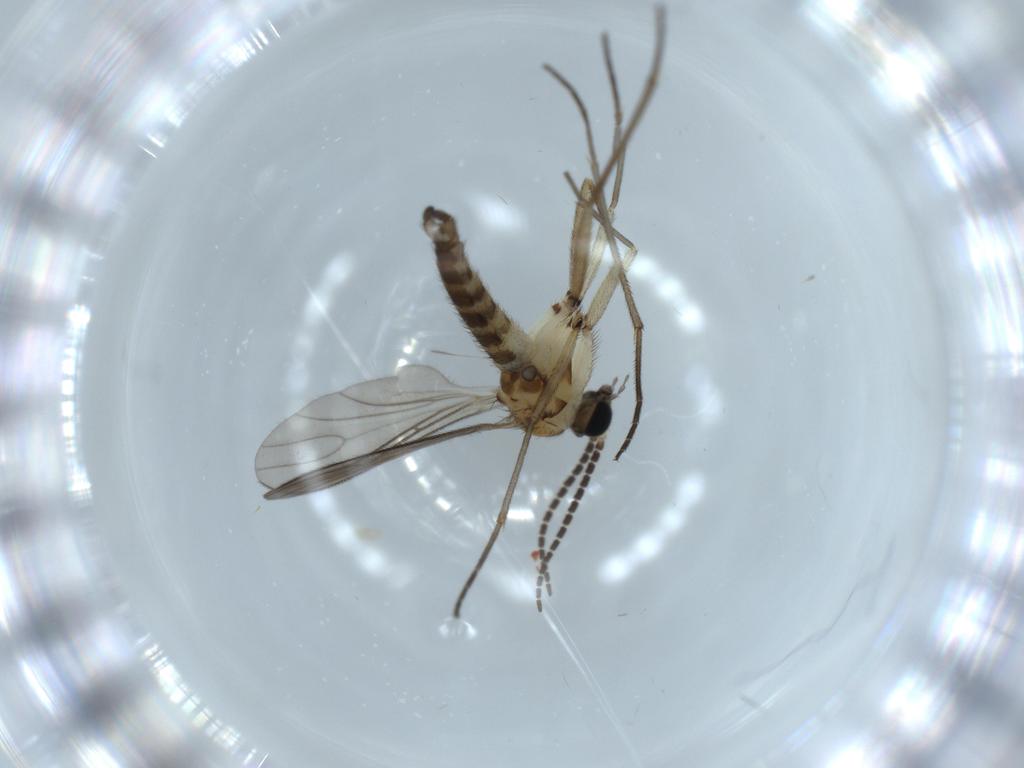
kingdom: Animalia
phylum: Arthropoda
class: Insecta
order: Diptera
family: Sciaridae
